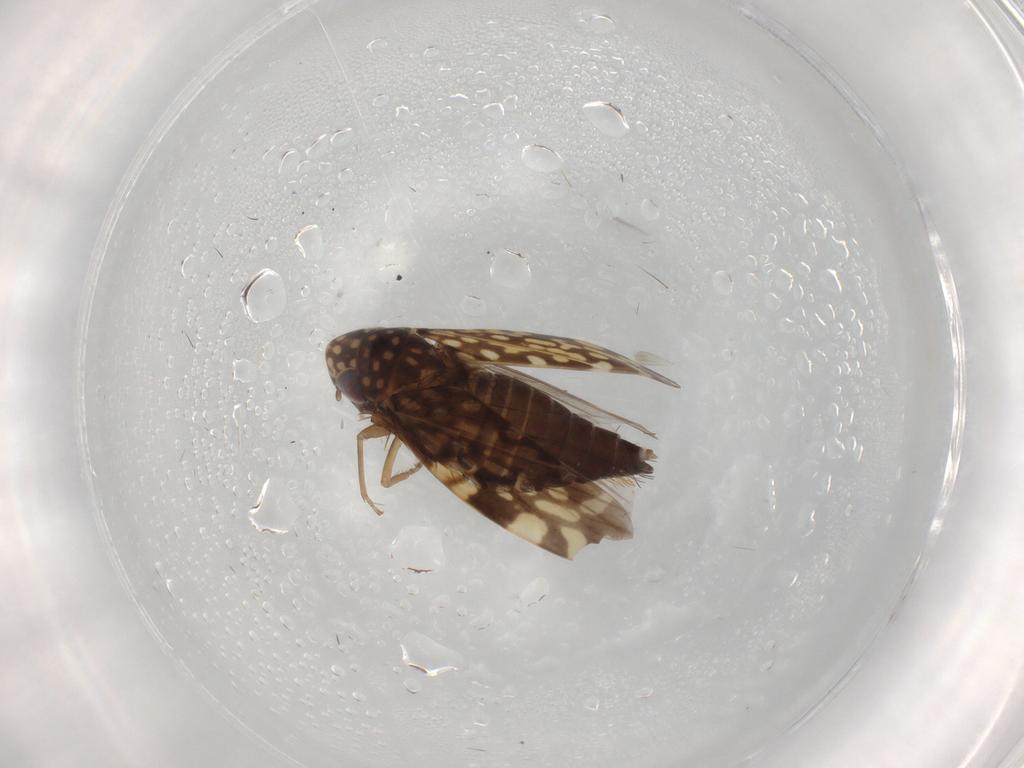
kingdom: Animalia
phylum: Arthropoda
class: Insecta
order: Hemiptera
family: Cicadellidae
